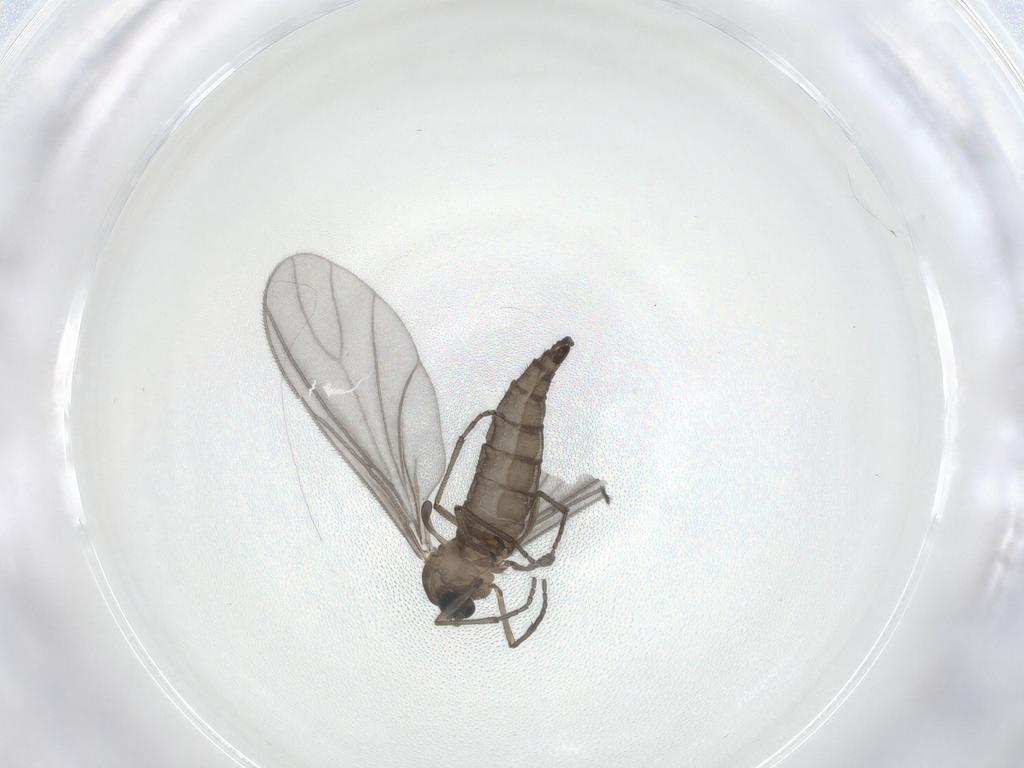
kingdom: Animalia
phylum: Arthropoda
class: Insecta
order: Diptera
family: Sciaridae
